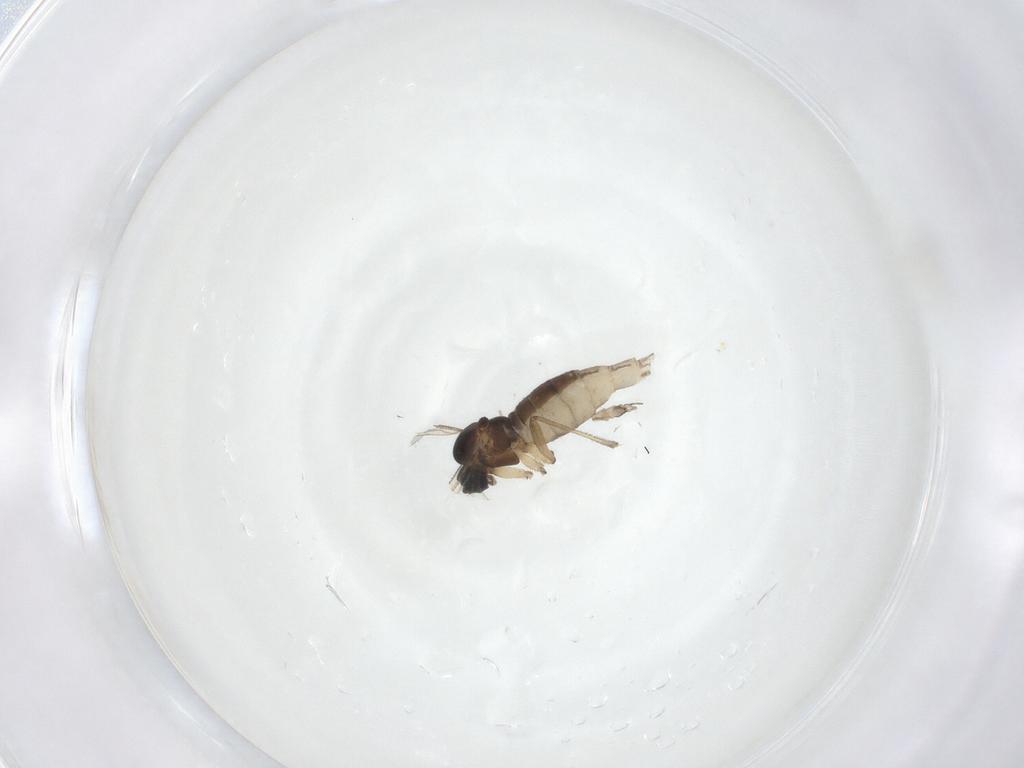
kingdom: Animalia
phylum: Arthropoda
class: Insecta
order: Diptera
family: Sciaridae
